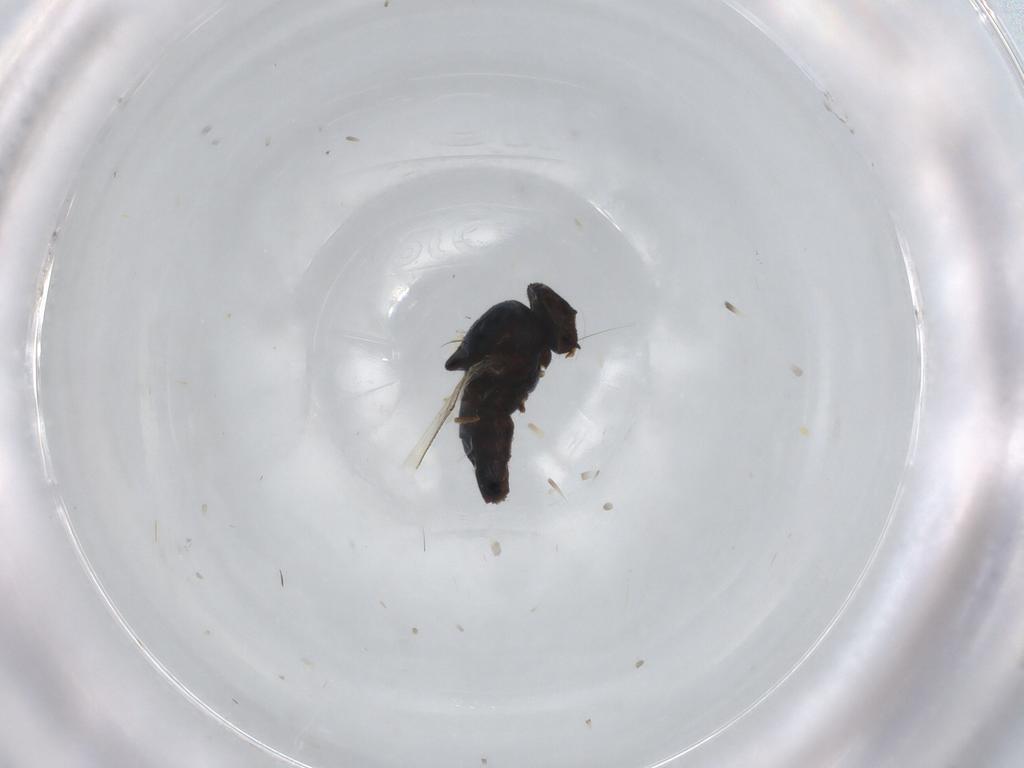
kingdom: Animalia
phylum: Arthropoda
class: Insecta
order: Diptera
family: Milichiidae
